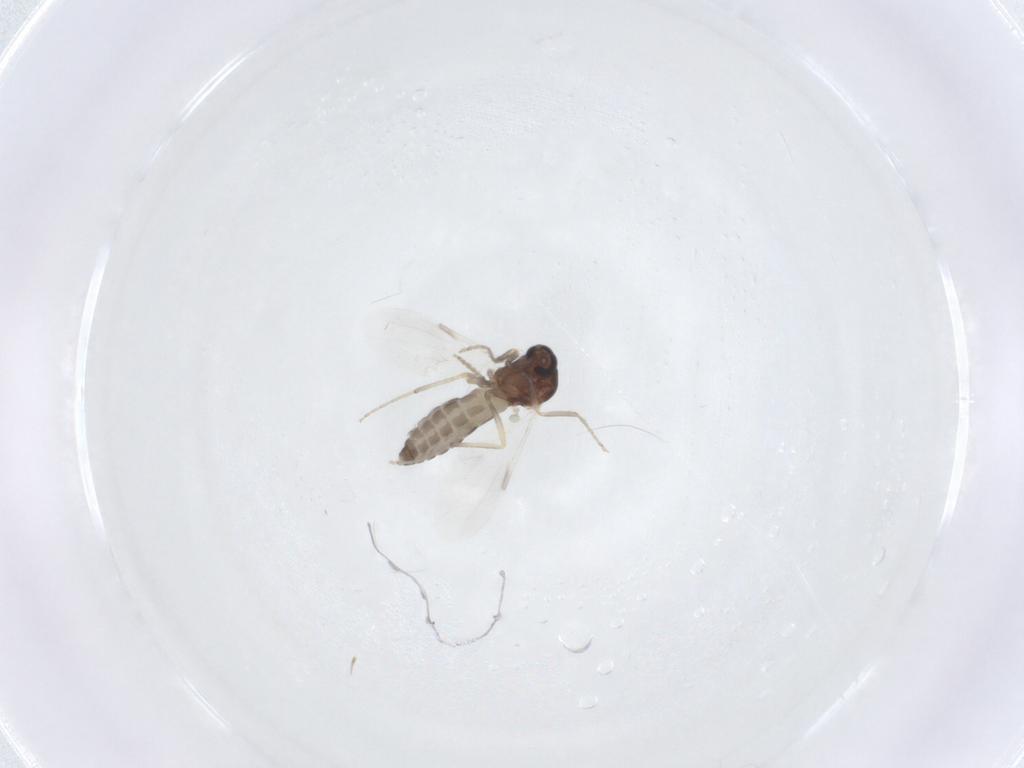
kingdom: Animalia
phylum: Arthropoda
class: Insecta
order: Diptera
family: Ceratopogonidae
